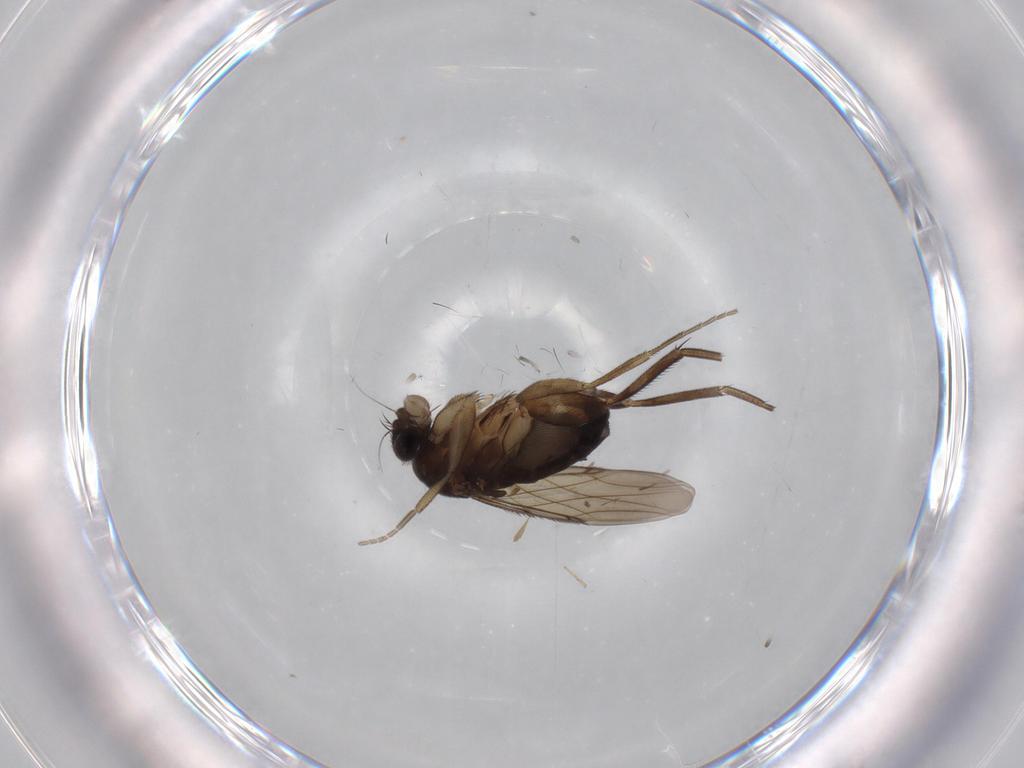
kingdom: Animalia
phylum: Arthropoda
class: Insecta
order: Diptera
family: Phoridae
